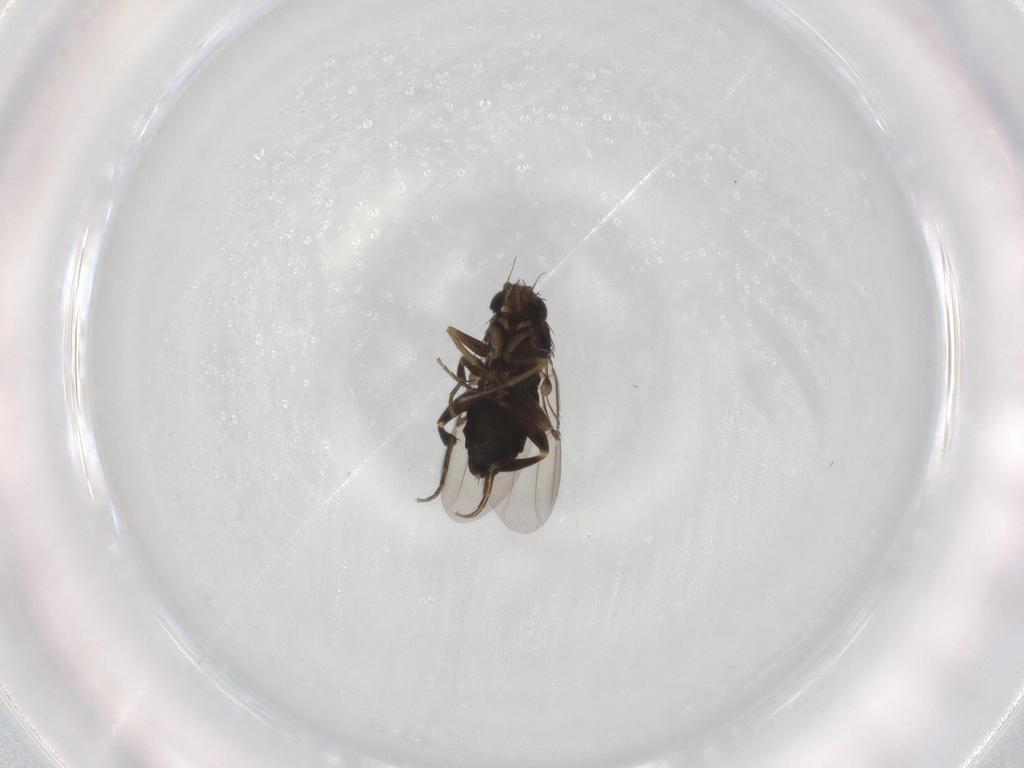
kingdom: Animalia
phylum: Arthropoda
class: Insecta
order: Diptera
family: Phoridae
